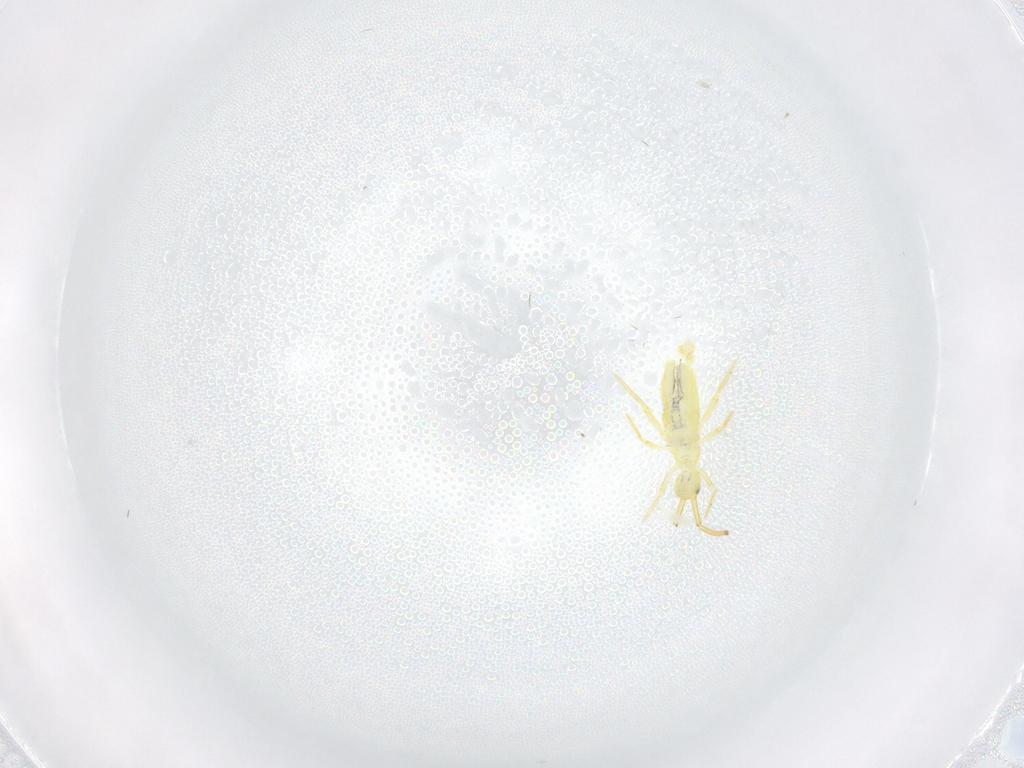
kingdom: Animalia
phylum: Arthropoda
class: Collembola
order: Entomobryomorpha
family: Paronellidae
